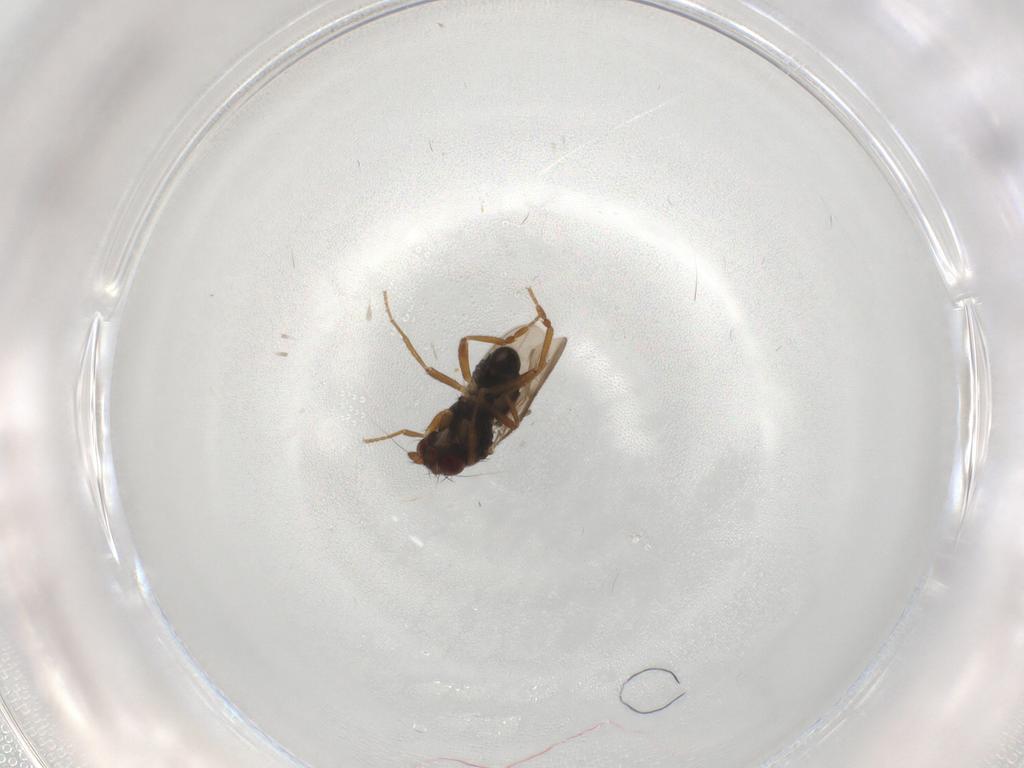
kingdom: Animalia
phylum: Arthropoda
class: Insecta
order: Diptera
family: Sphaeroceridae
